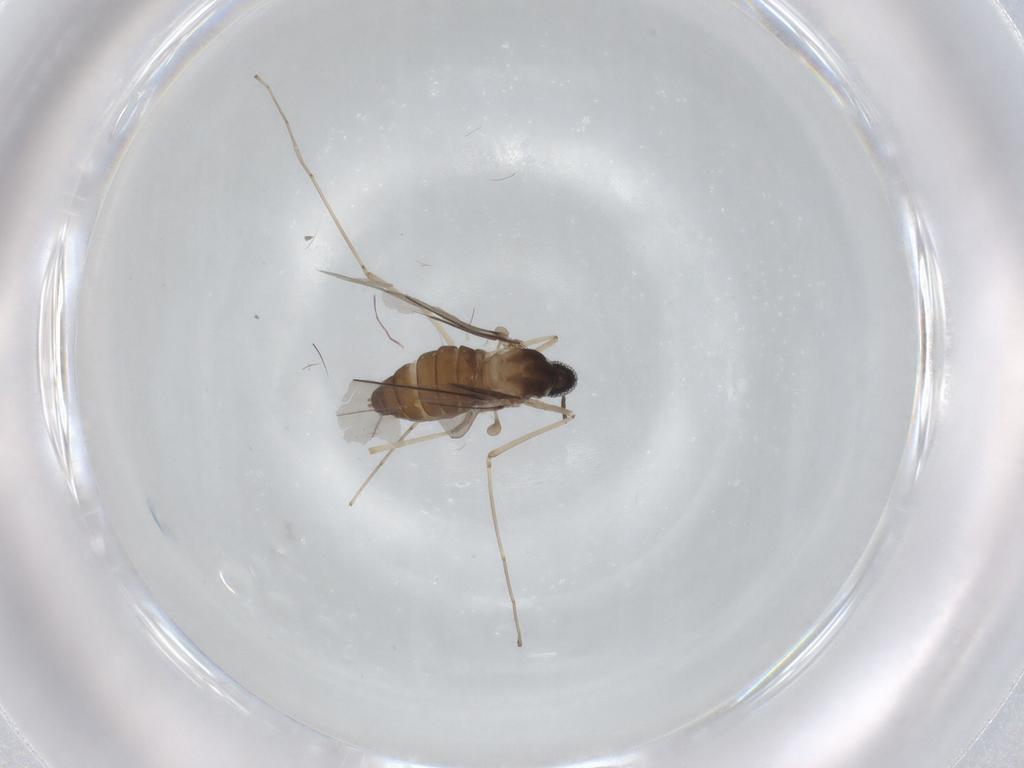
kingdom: Animalia
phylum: Arthropoda
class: Insecta
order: Diptera
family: Cecidomyiidae
